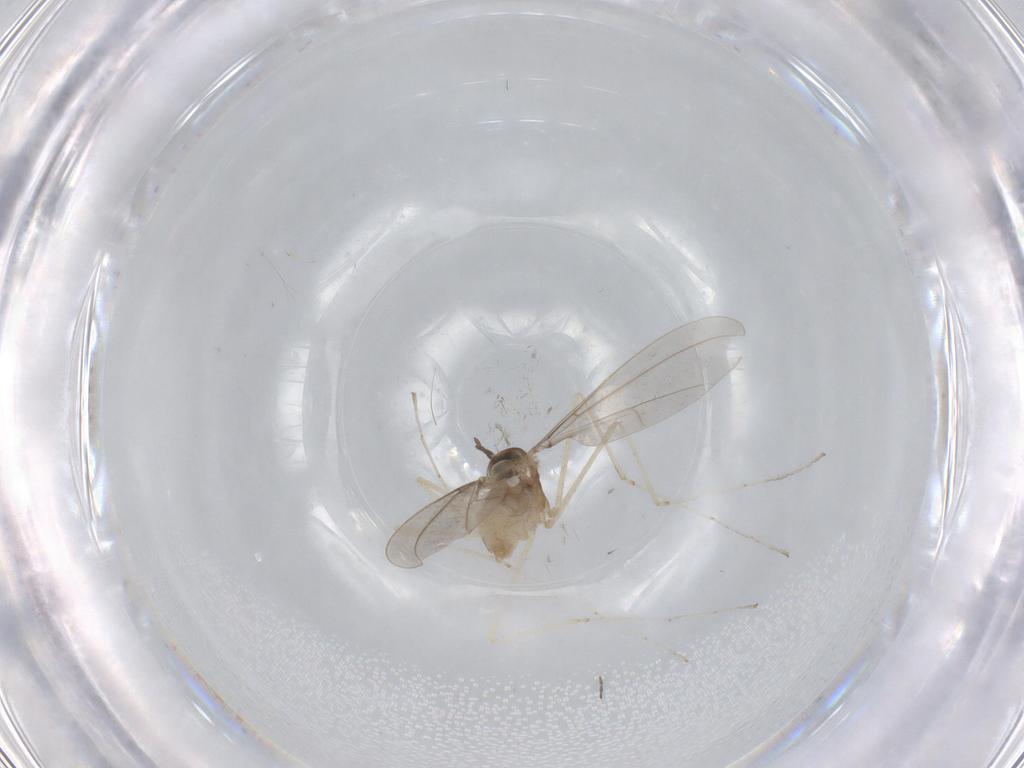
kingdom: Animalia
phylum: Arthropoda
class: Insecta
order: Diptera
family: Cecidomyiidae
